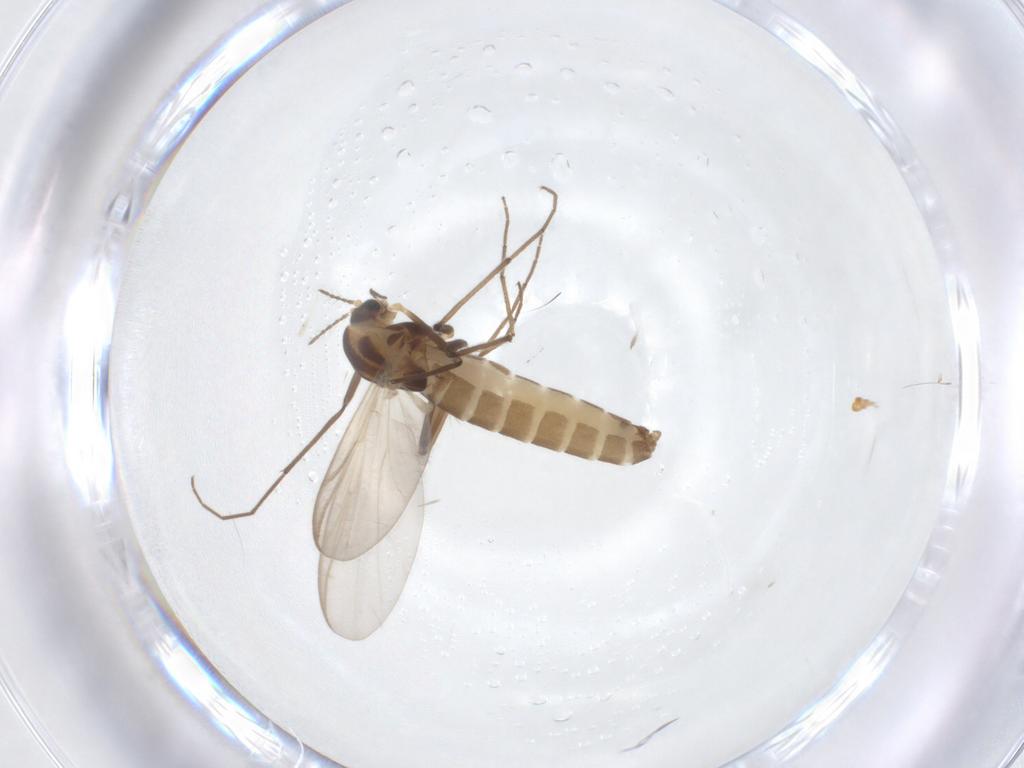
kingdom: Animalia
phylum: Arthropoda
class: Insecta
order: Diptera
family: Chironomidae
